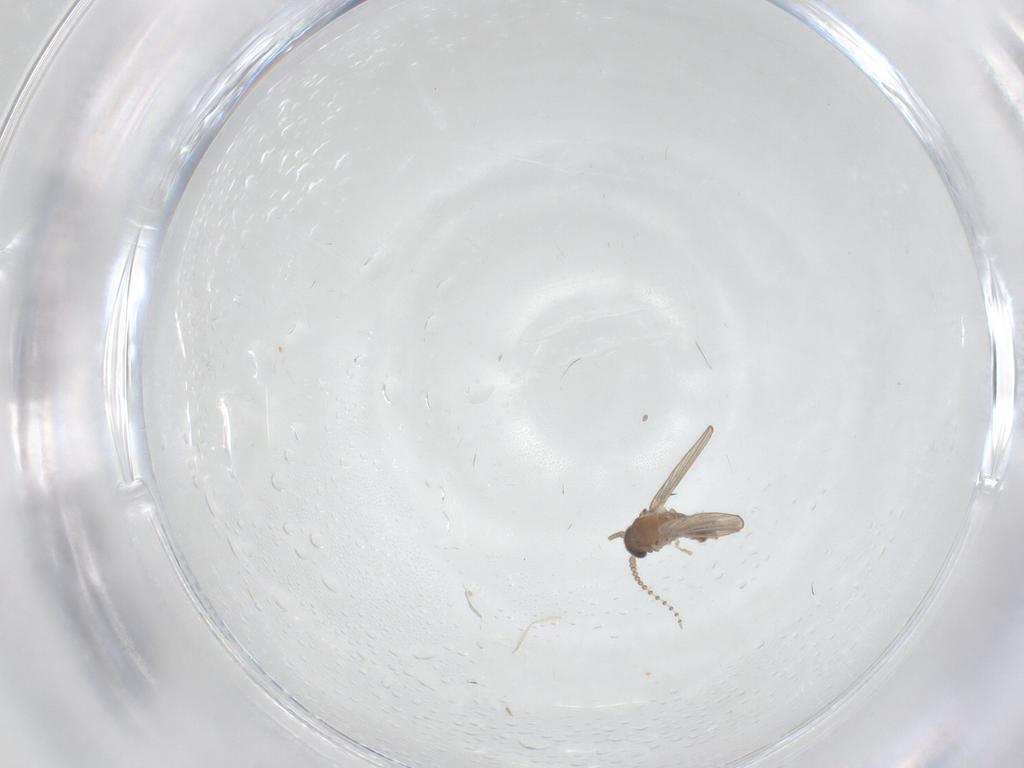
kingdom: Animalia
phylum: Arthropoda
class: Insecta
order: Diptera
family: Psychodidae
